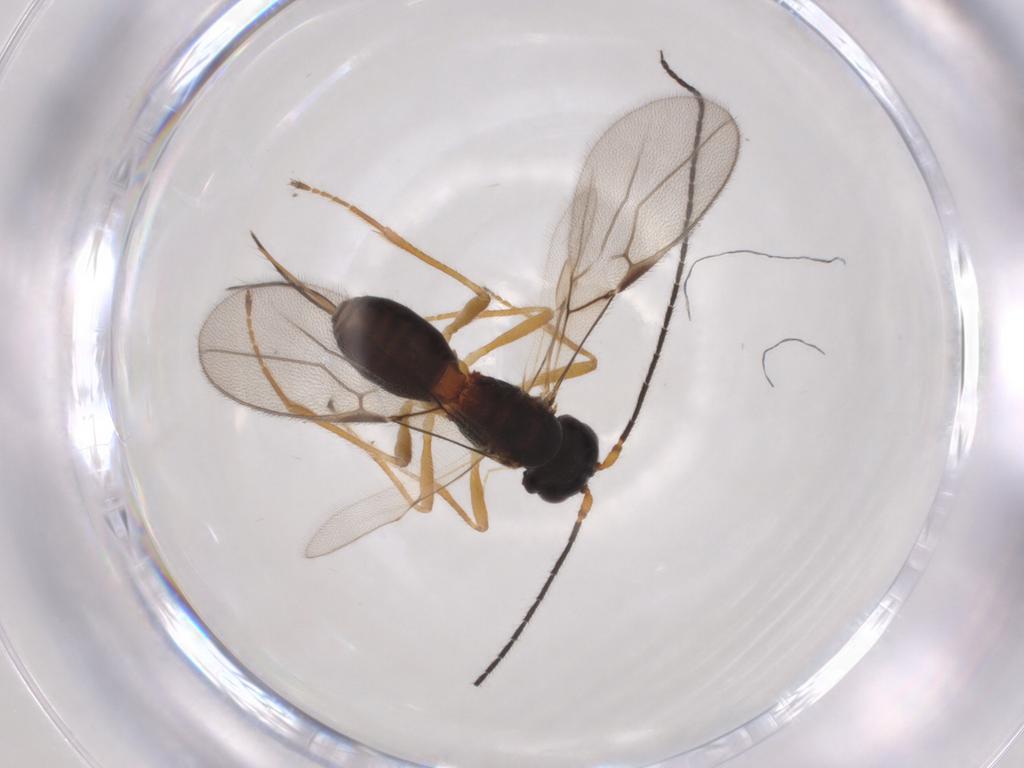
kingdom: Animalia
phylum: Arthropoda
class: Insecta
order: Hymenoptera
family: Braconidae
